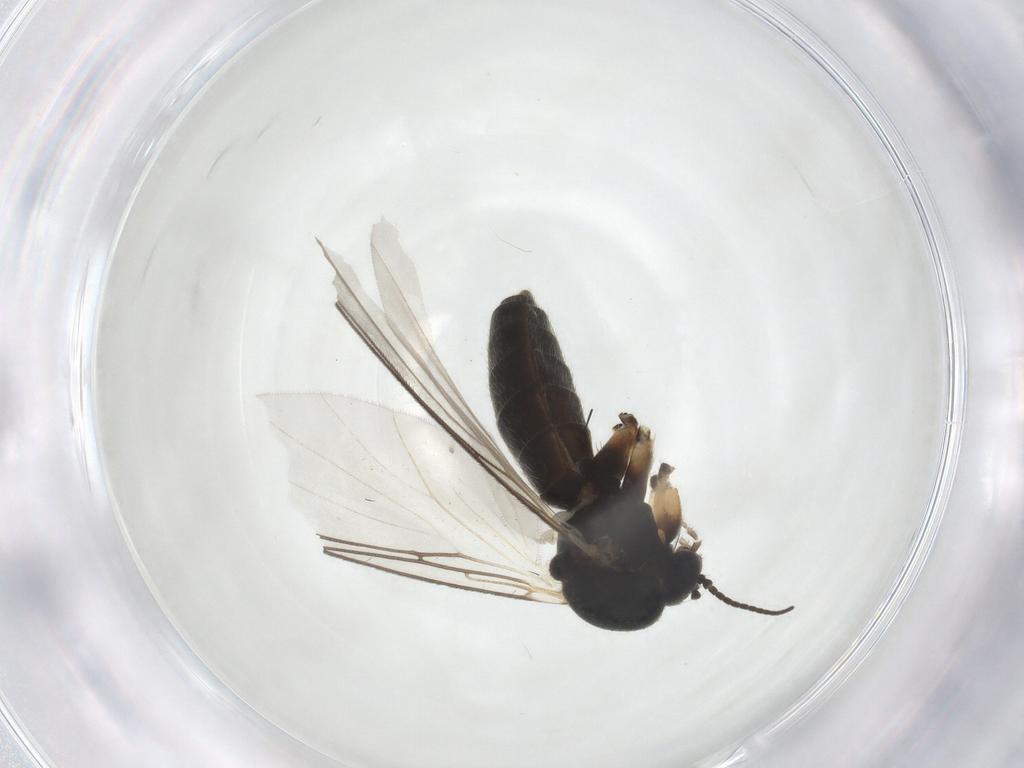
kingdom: Animalia
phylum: Arthropoda
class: Insecta
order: Diptera
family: Mycetophilidae
